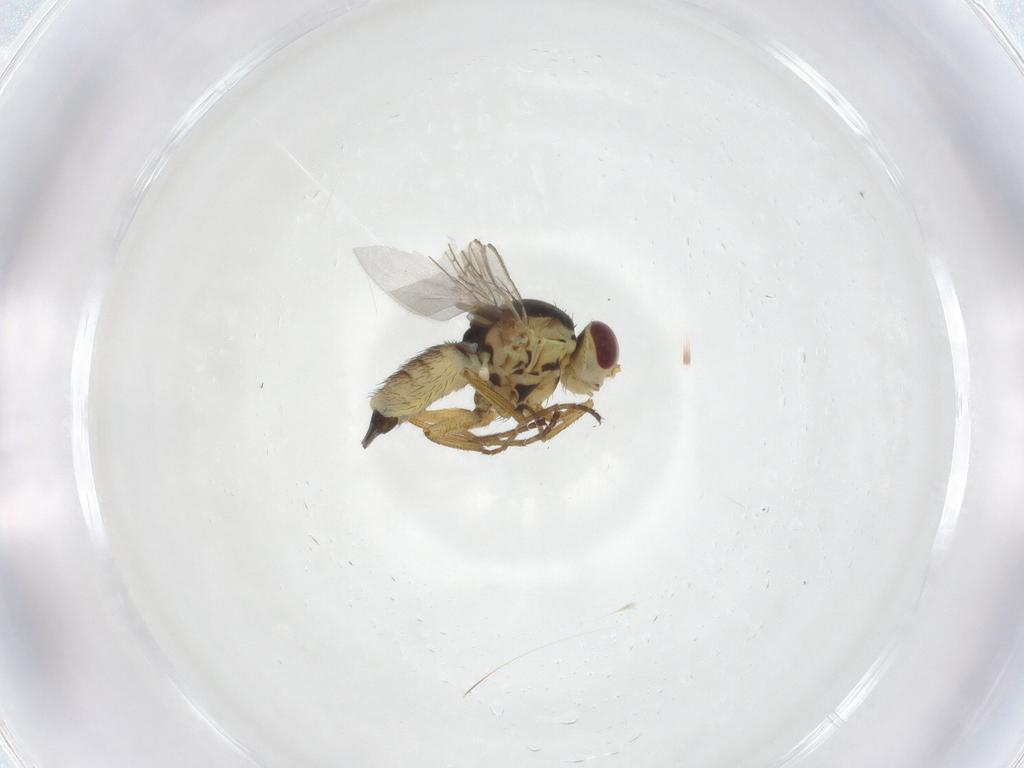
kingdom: Animalia
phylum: Arthropoda
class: Insecta
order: Diptera
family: Agromyzidae
